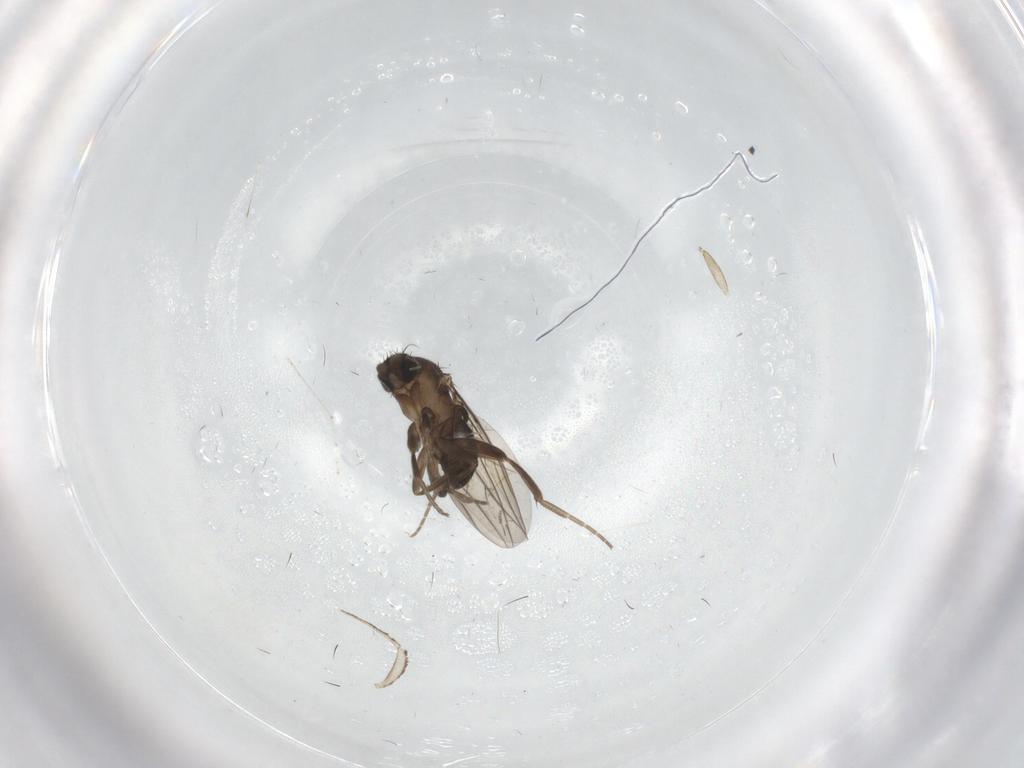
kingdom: Animalia
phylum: Arthropoda
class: Insecta
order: Diptera
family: Phoridae
